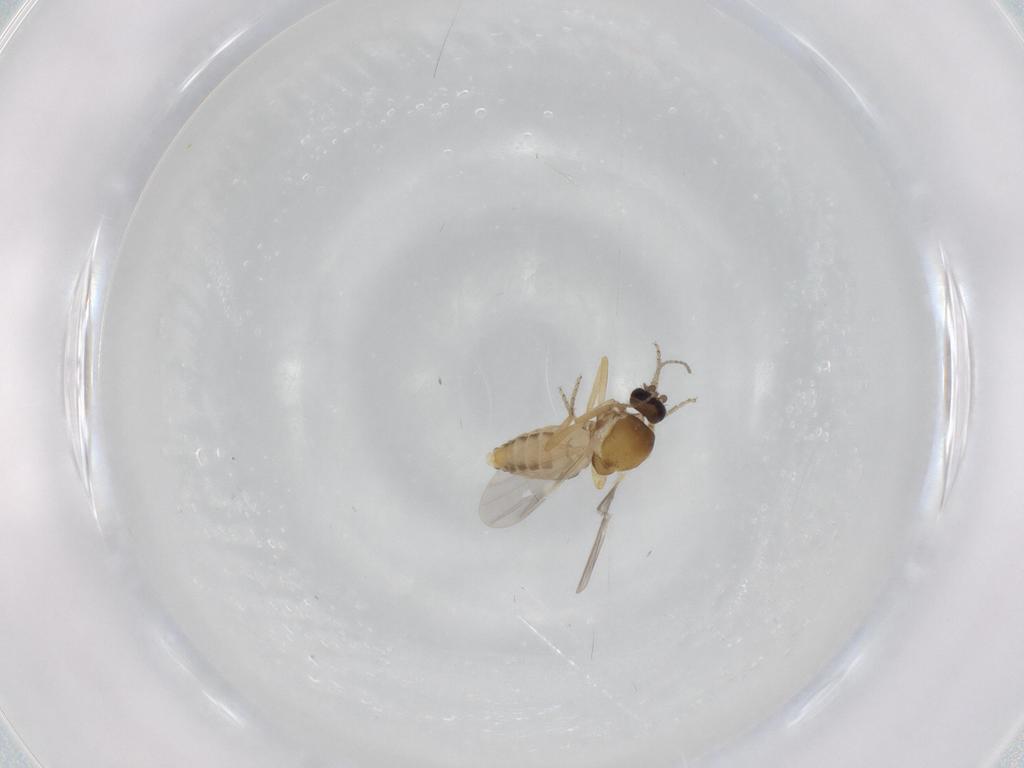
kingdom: Animalia
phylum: Arthropoda
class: Insecta
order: Diptera
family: Ceratopogonidae
